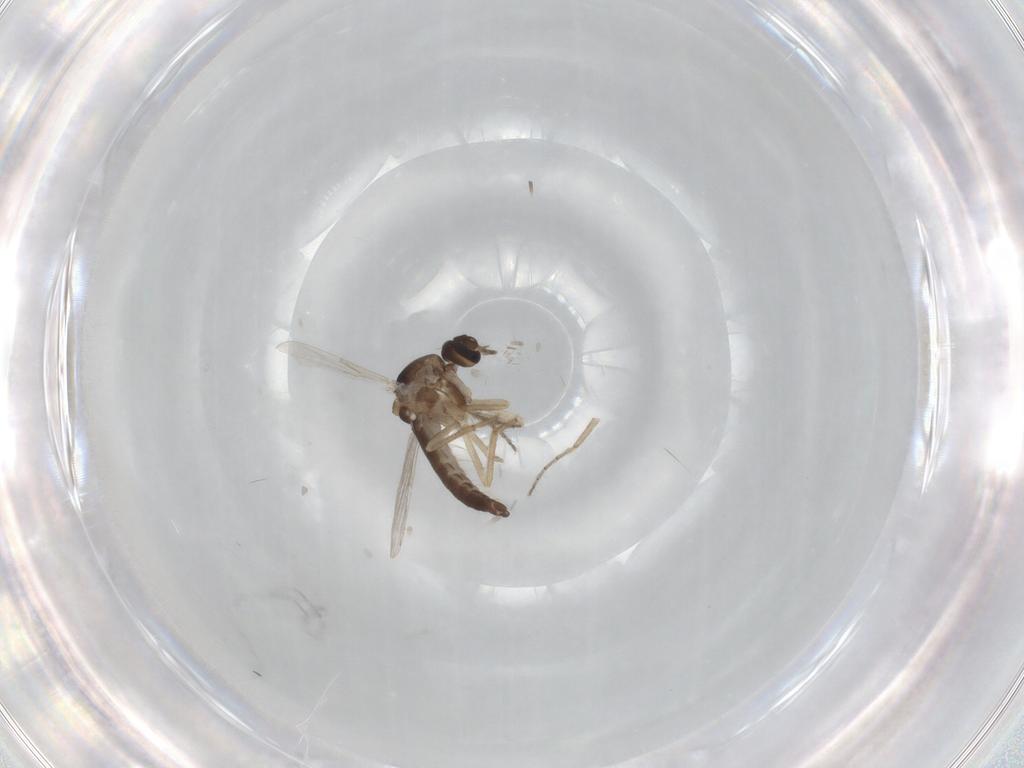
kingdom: Animalia
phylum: Arthropoda
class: Insecta
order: Diptera
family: Ceratopogonidae
